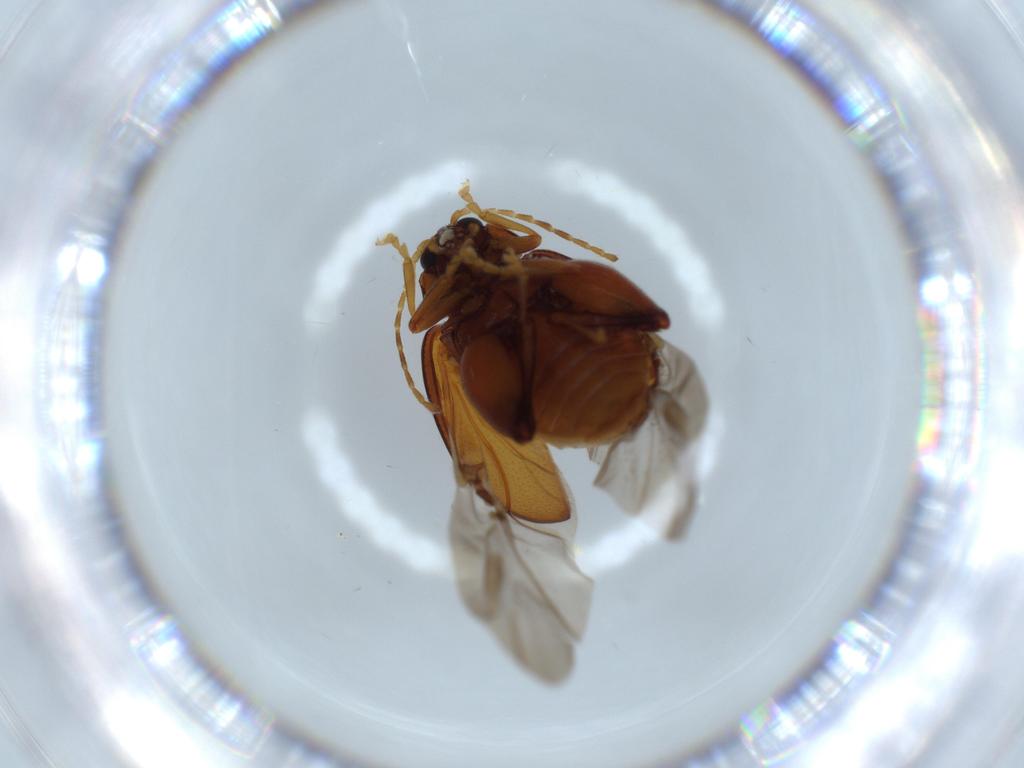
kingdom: Animalia
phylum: Arthropoda
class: Insecta
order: Coleoptera
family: Chrysomelidae
